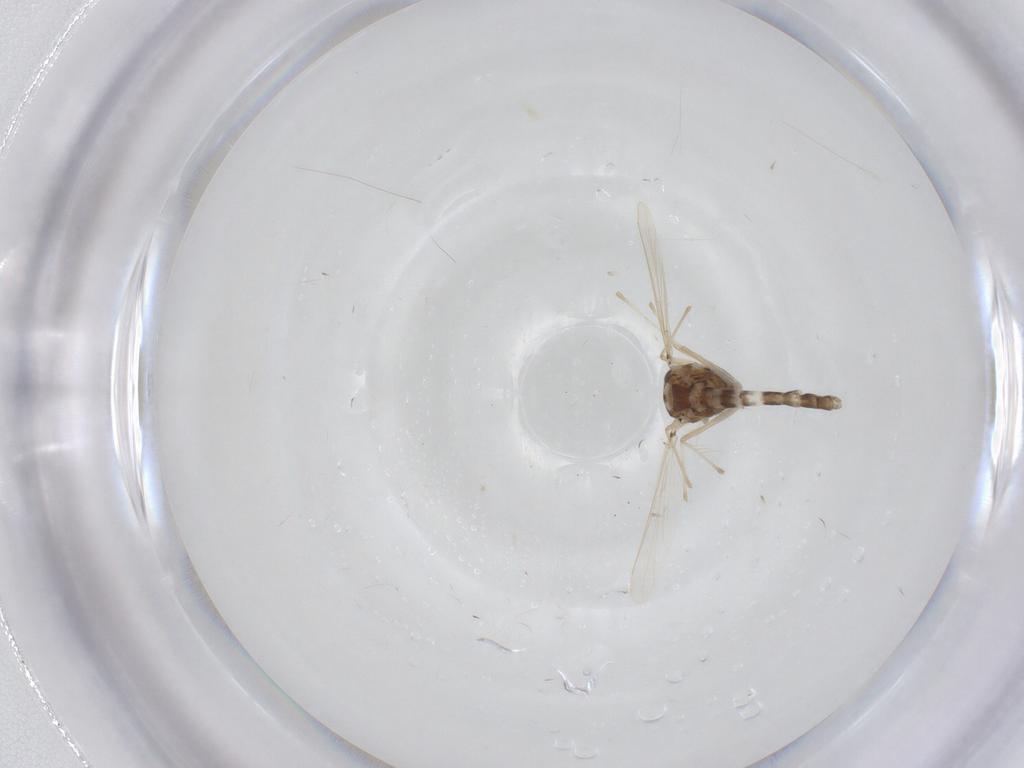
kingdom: Animalia
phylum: Arthropoda
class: Insecta
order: Diptera
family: Chironomidae
